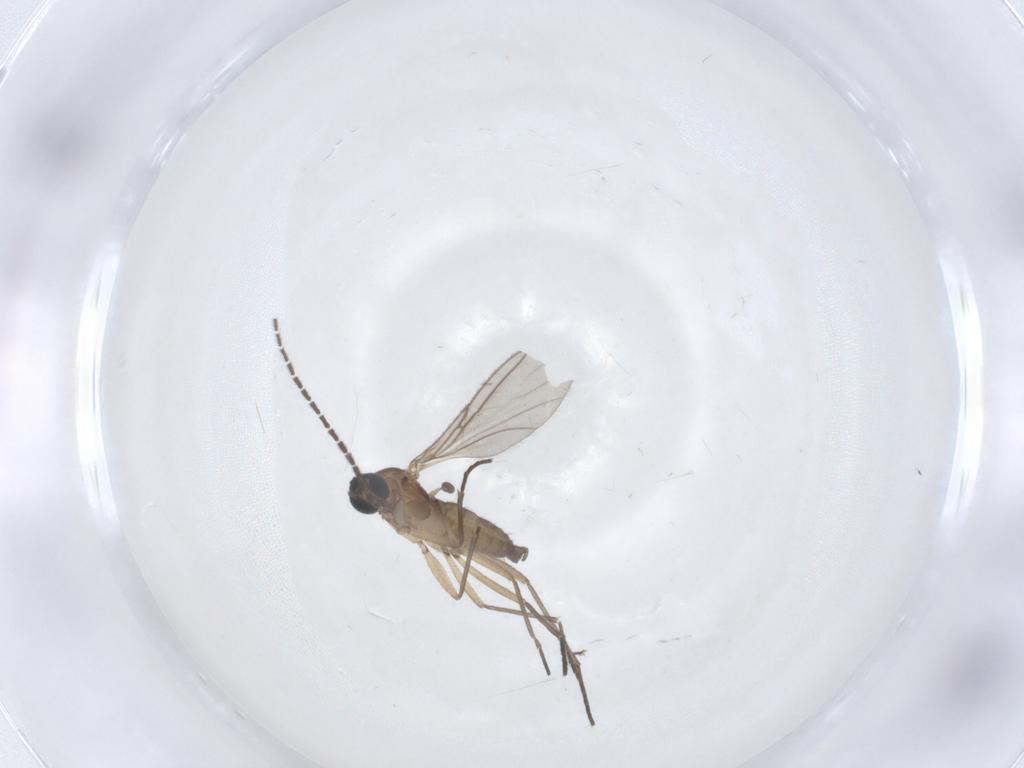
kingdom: Animalia
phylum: Arthropoda
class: Insecta
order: Diptera
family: Sciaridae
